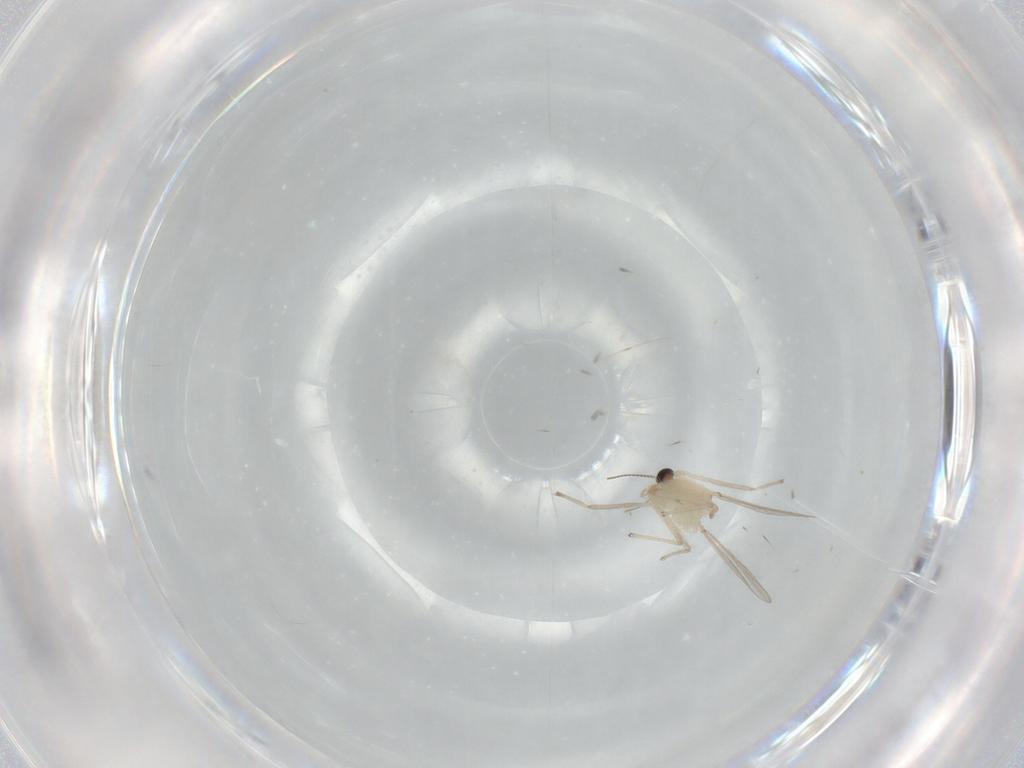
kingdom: Animalia
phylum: Arthropoda
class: Insecta
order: Diptera
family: Chironomidae
